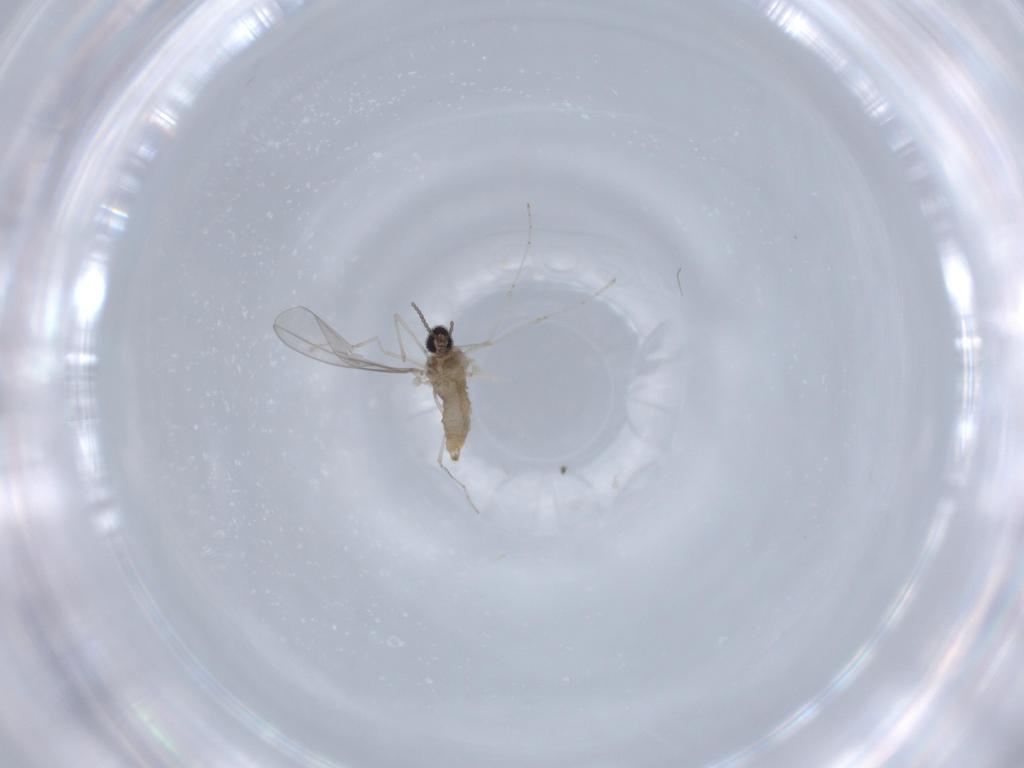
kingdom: Animalia
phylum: Arthropoda
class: Insecta
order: Diptera
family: Cecidomyiidae
